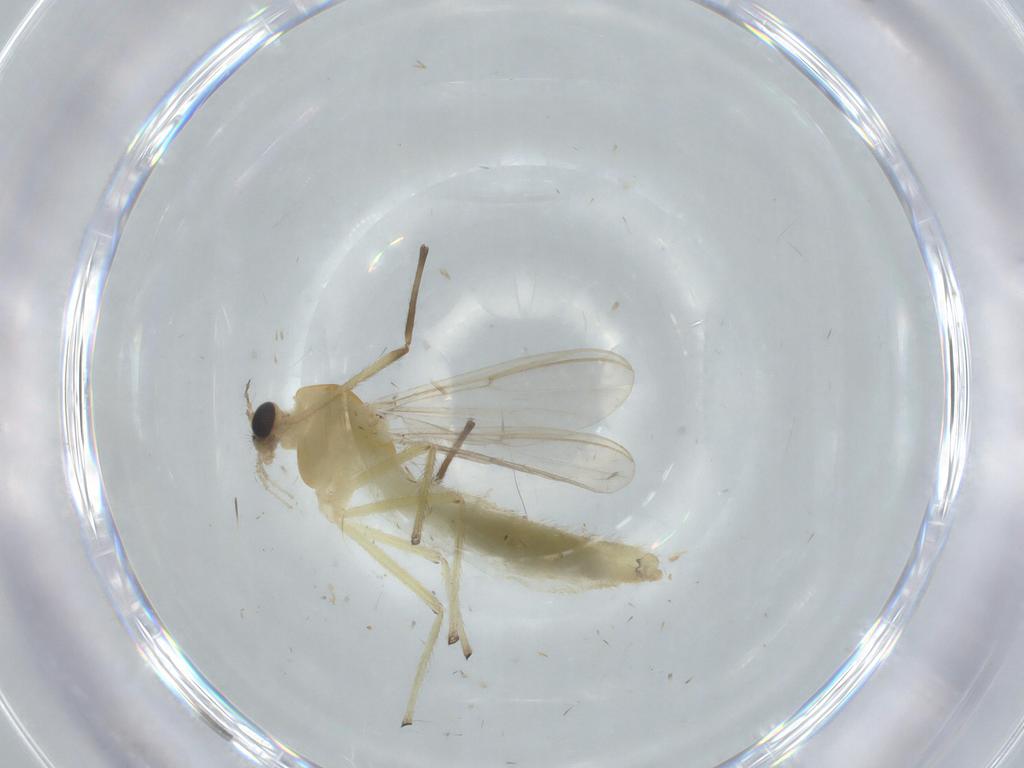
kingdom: Animalia
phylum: Arthropoda
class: Insecta
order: Diptera
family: Chironomidae
